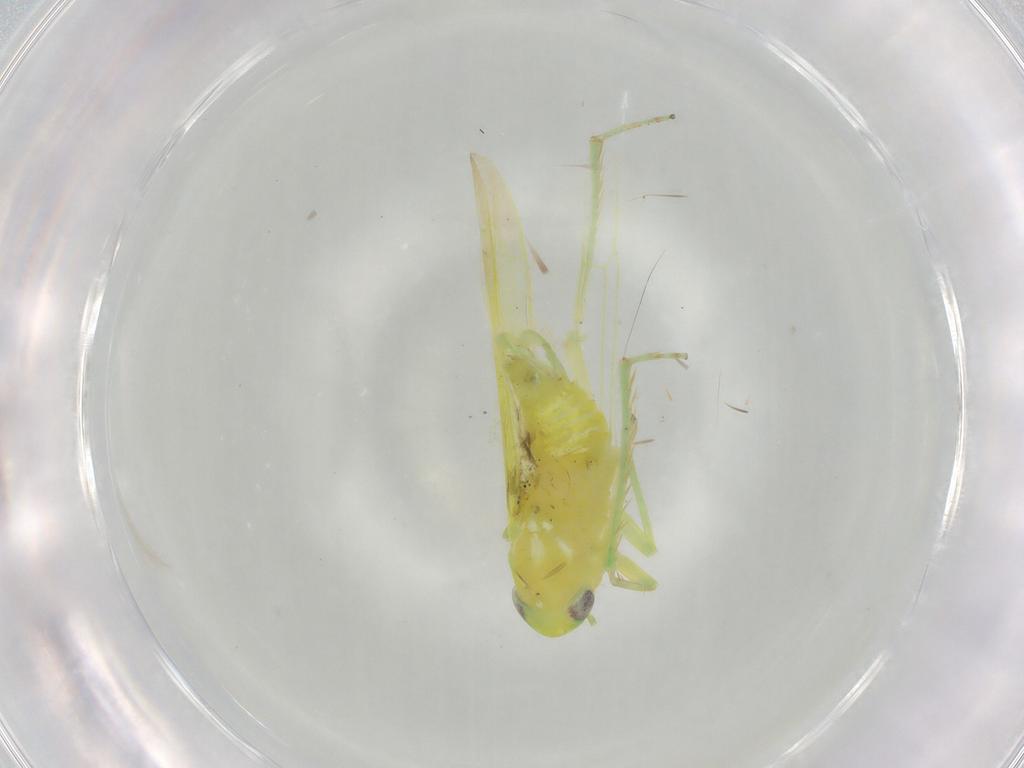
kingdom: Animalia
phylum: Arthropoda
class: Insecta
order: Hemiptera
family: Cicadellidae
